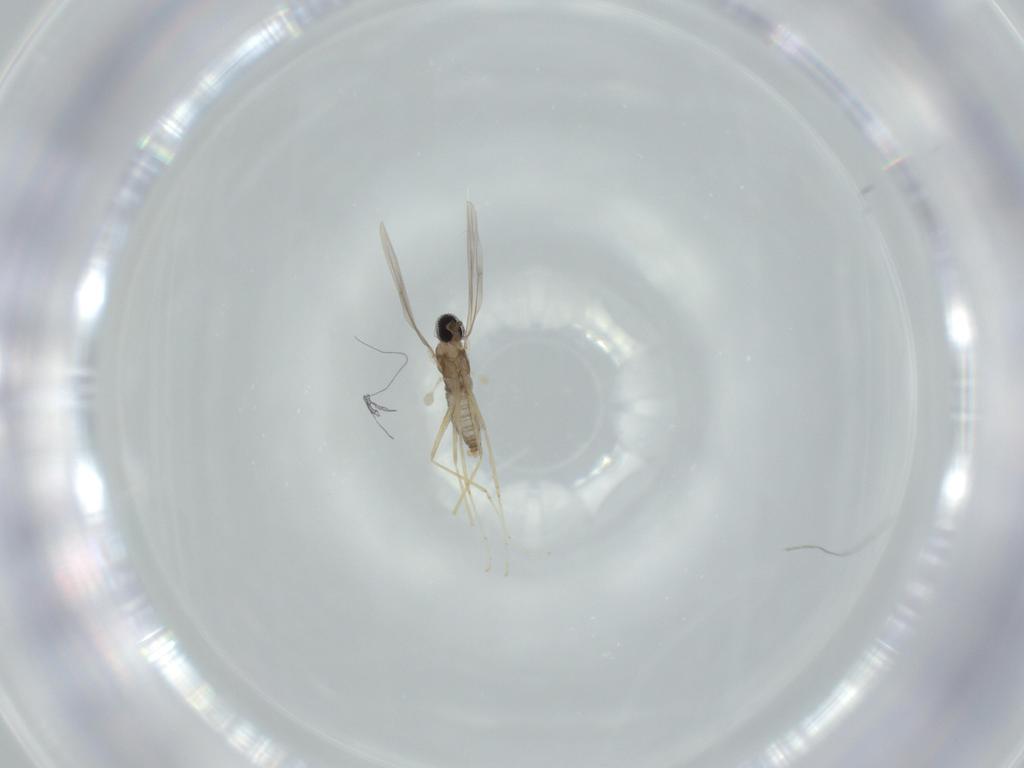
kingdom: Animalia
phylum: Arthropoda
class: Insecta
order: Diptera
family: Cecidomyiidae
